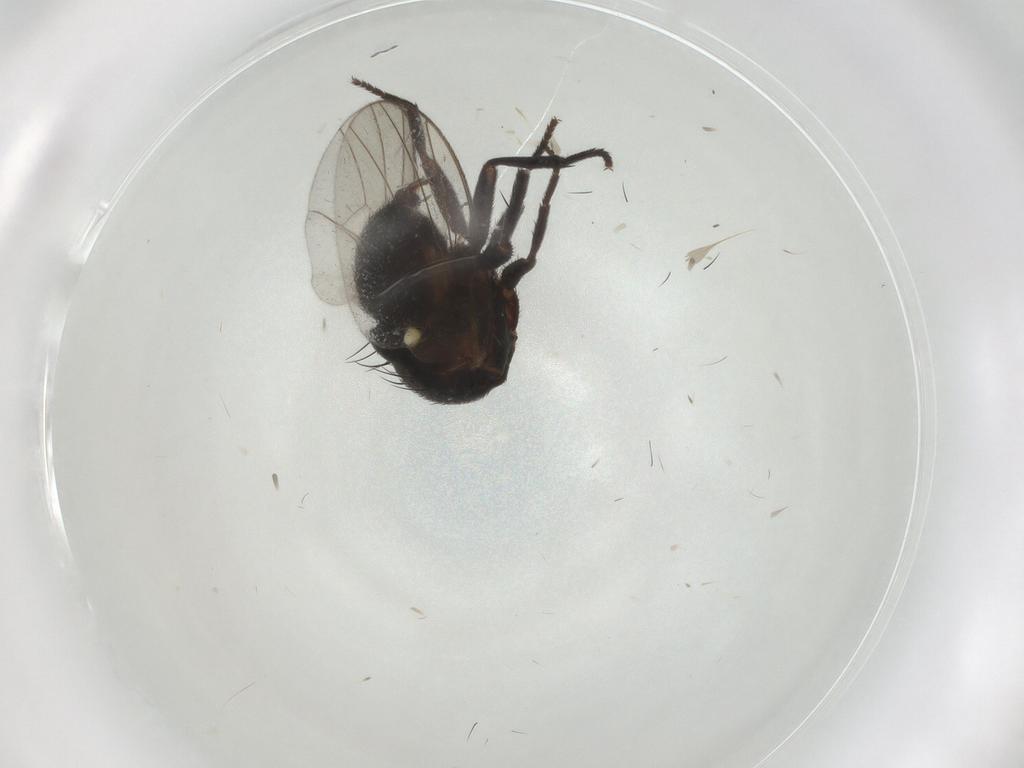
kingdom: Animalia
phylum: Arthropoda
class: Insecta
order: Diptera
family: Agromyzidae
